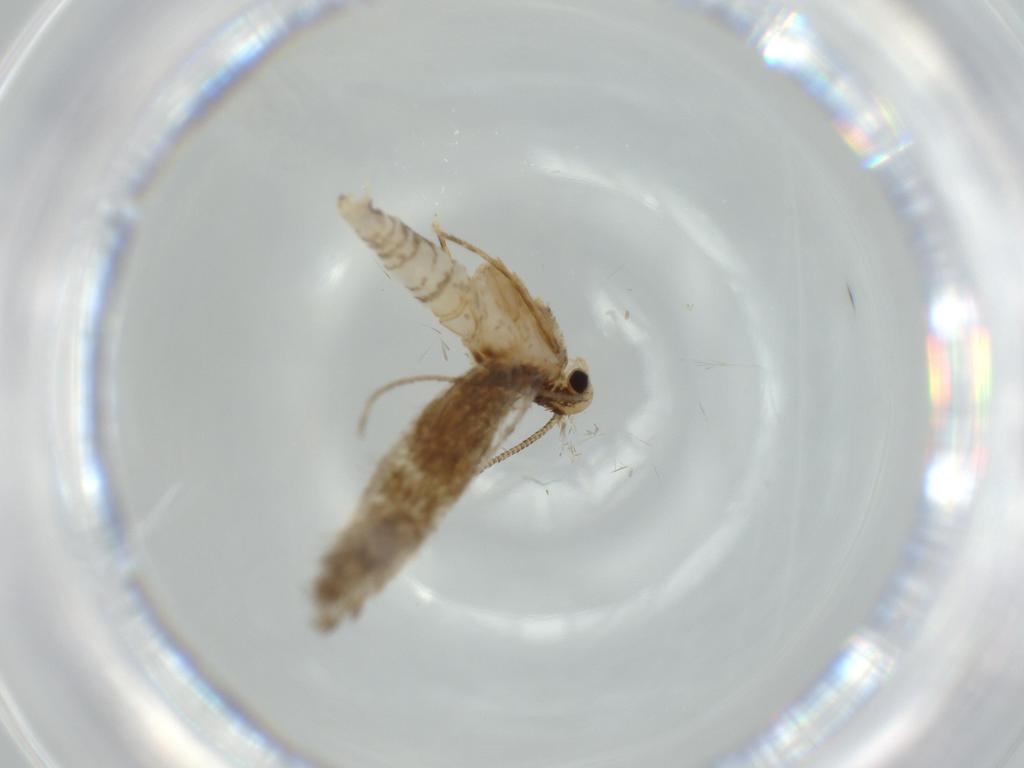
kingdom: Animalia
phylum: Arthropoda
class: Insecta
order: Lepidoptera
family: Tineidae
